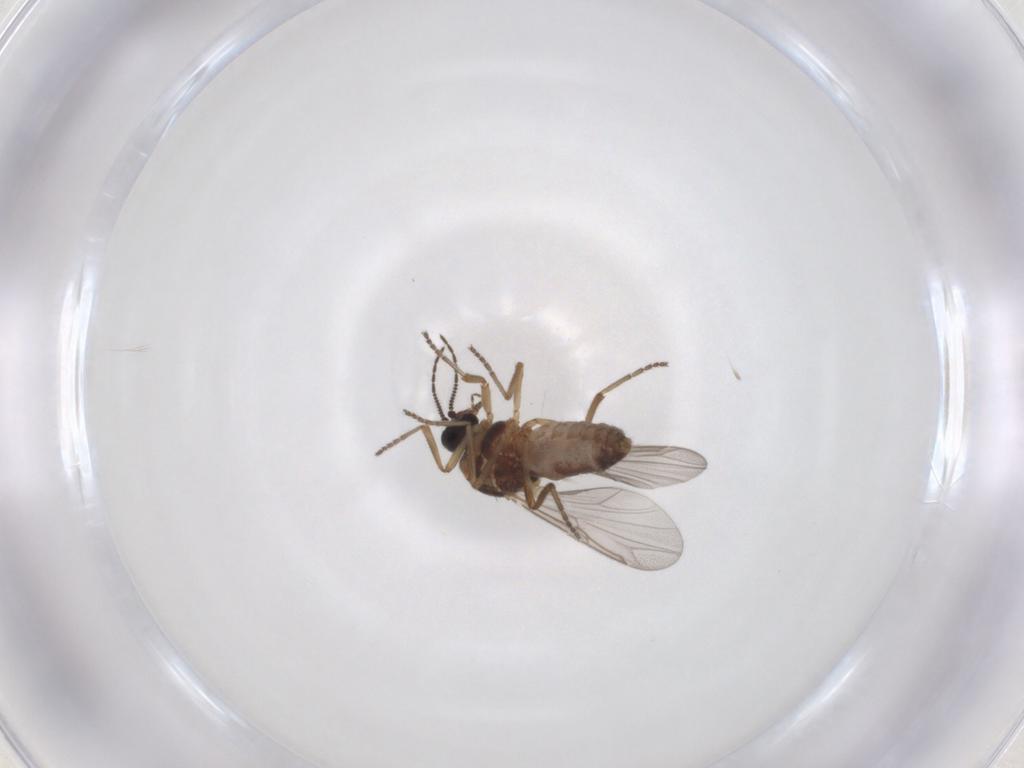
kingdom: Animalia
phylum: Arthropoda
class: Insecta
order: Diptera
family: Ceratopogonidae
